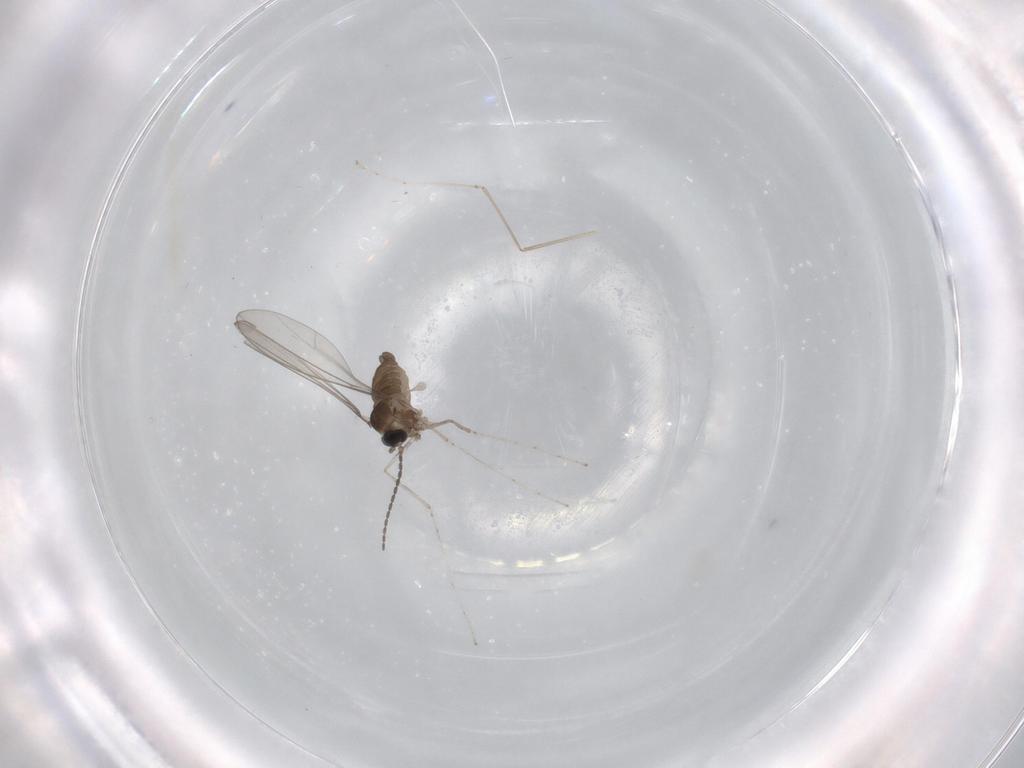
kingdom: Animalia
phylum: Arthropoda
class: Insecta
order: Diptera
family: Cecidomyiidae
